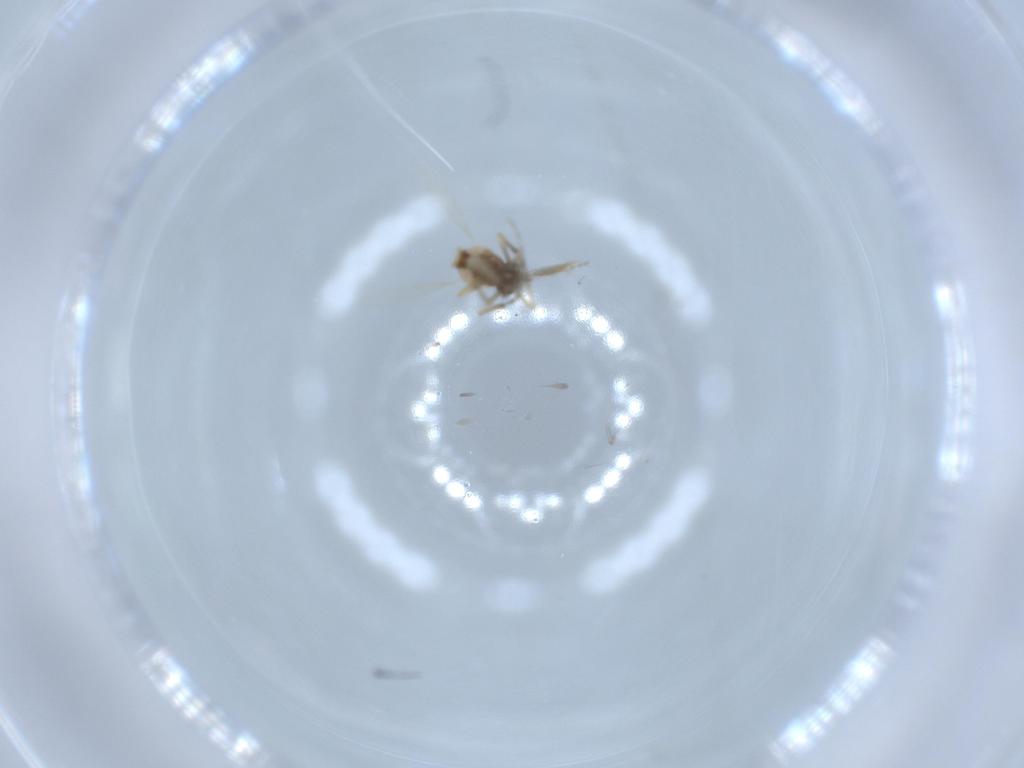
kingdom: Animalia
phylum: Arthropoda
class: Insecta
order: Diptera
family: Ceratopogonidae
